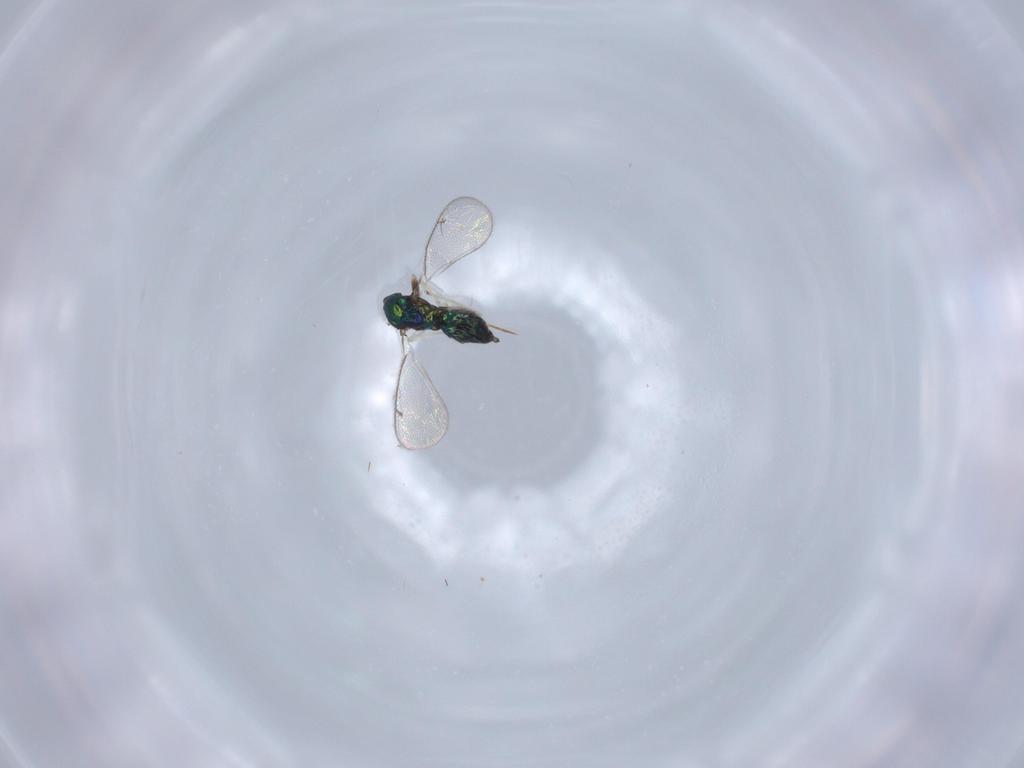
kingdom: Animalia
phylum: Arthropoda
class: Insecta
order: Hymenoptera
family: Eulophidae
